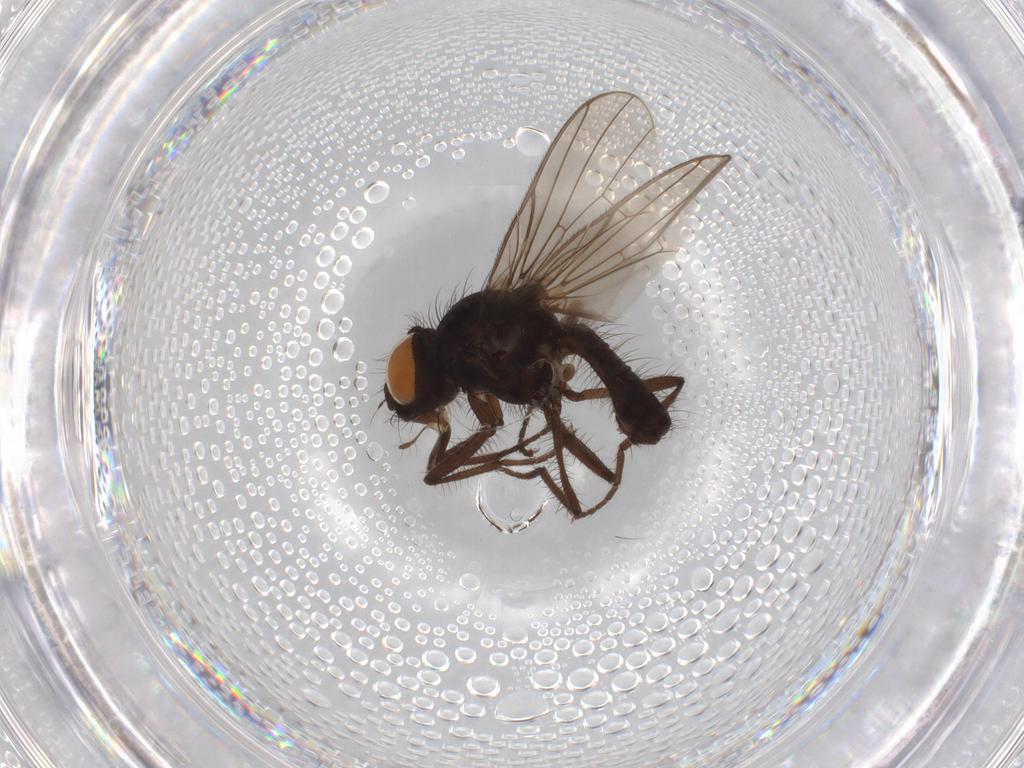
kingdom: Animalia
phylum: Arthropoda
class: Insecta
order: Diptera
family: Anthomyiidae
